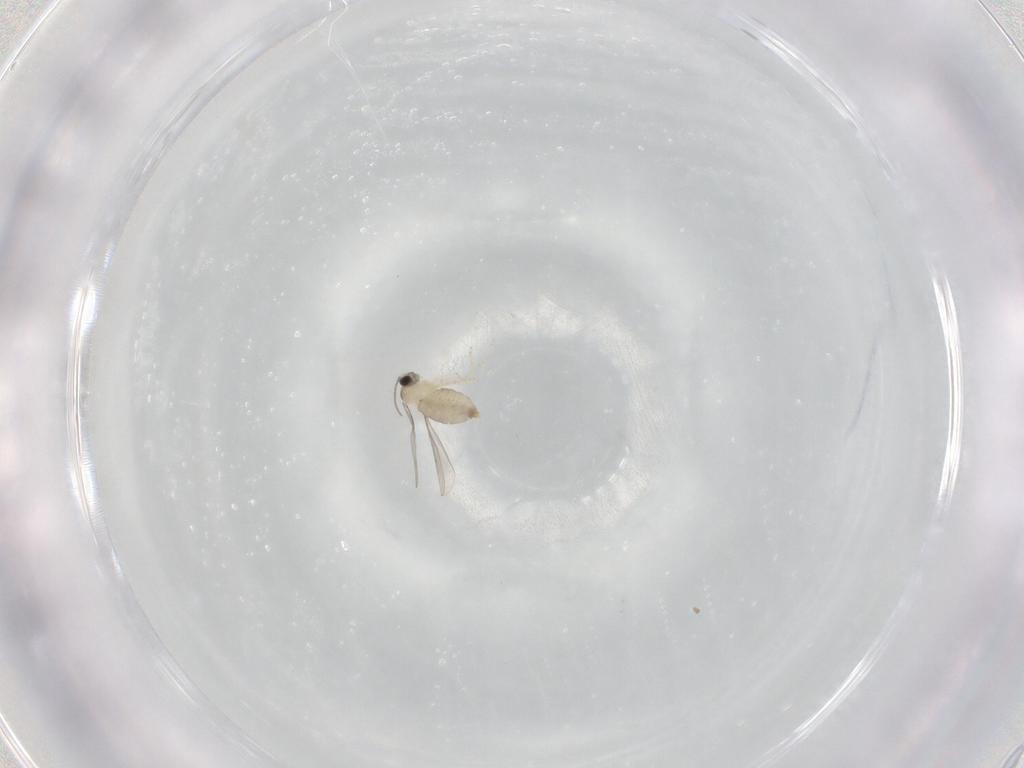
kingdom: Animalia
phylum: Arthropoda
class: Insecta
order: Diptera
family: Cecidomyiidae
